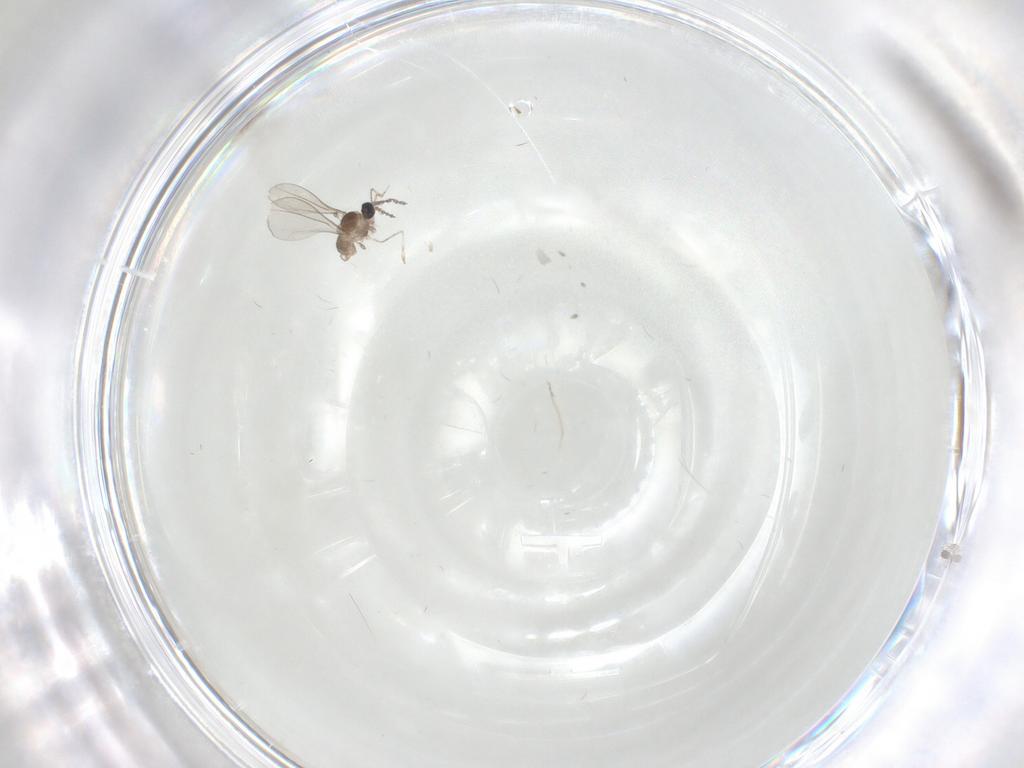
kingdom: Animalia
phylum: Arthropoda
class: Insecta
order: Diptera
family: Cecidomyiidae
